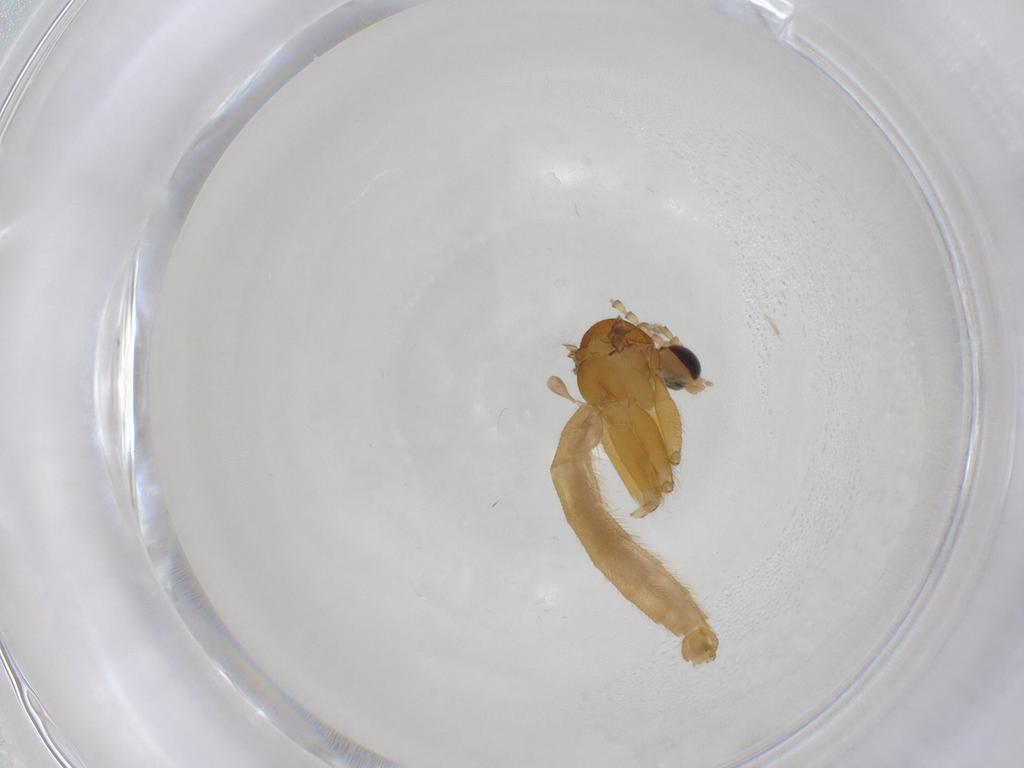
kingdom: Animalia
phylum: Arthropoda
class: Insecta
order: Diptera
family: Mycetophilidae
